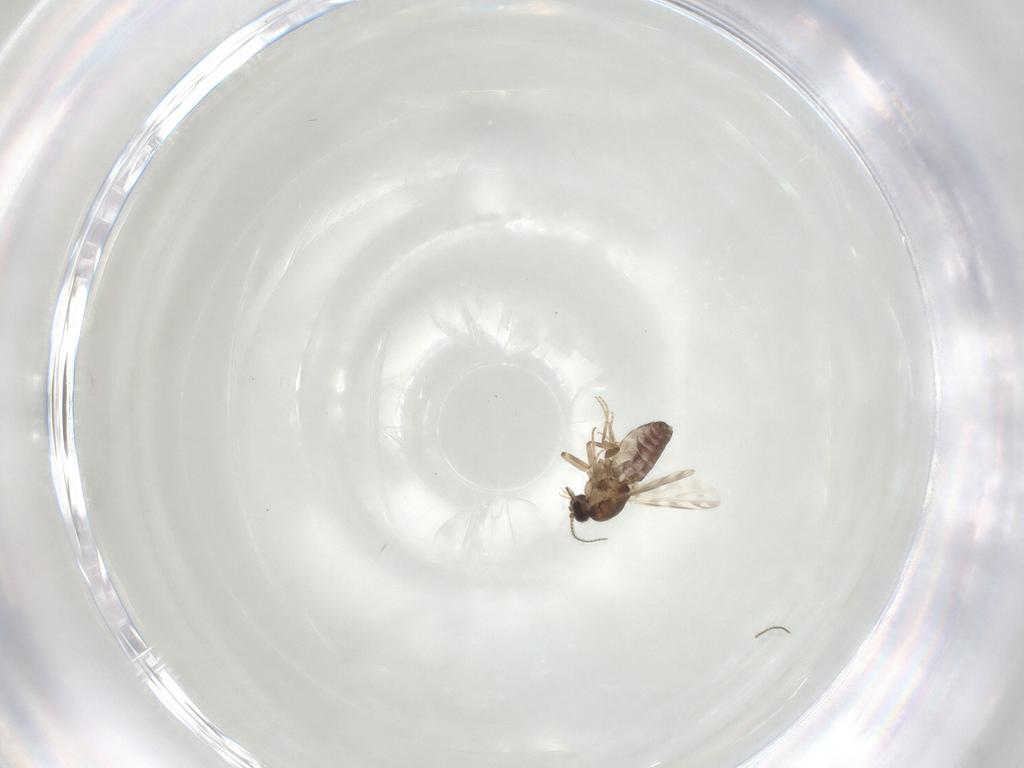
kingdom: Animalia
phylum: Arthropoda
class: Insecta
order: Diptera
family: Ceratopogonidae
